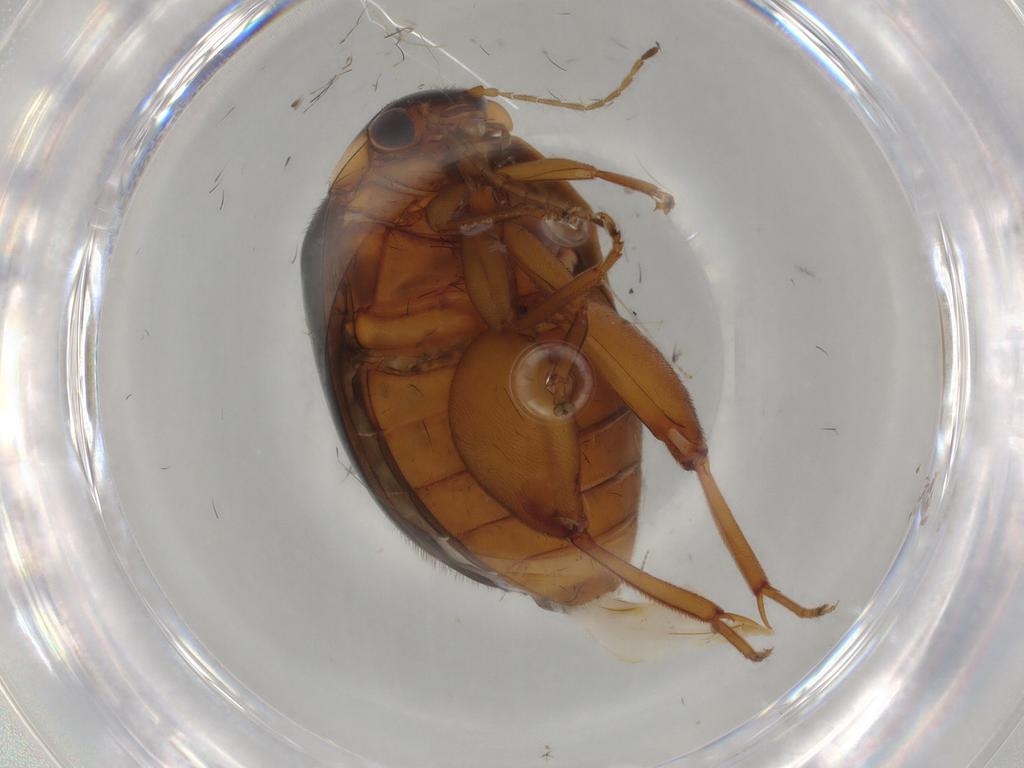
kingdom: Animalia
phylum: Arthropoda
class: Insecta
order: Coleoptera
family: Scirtidae
